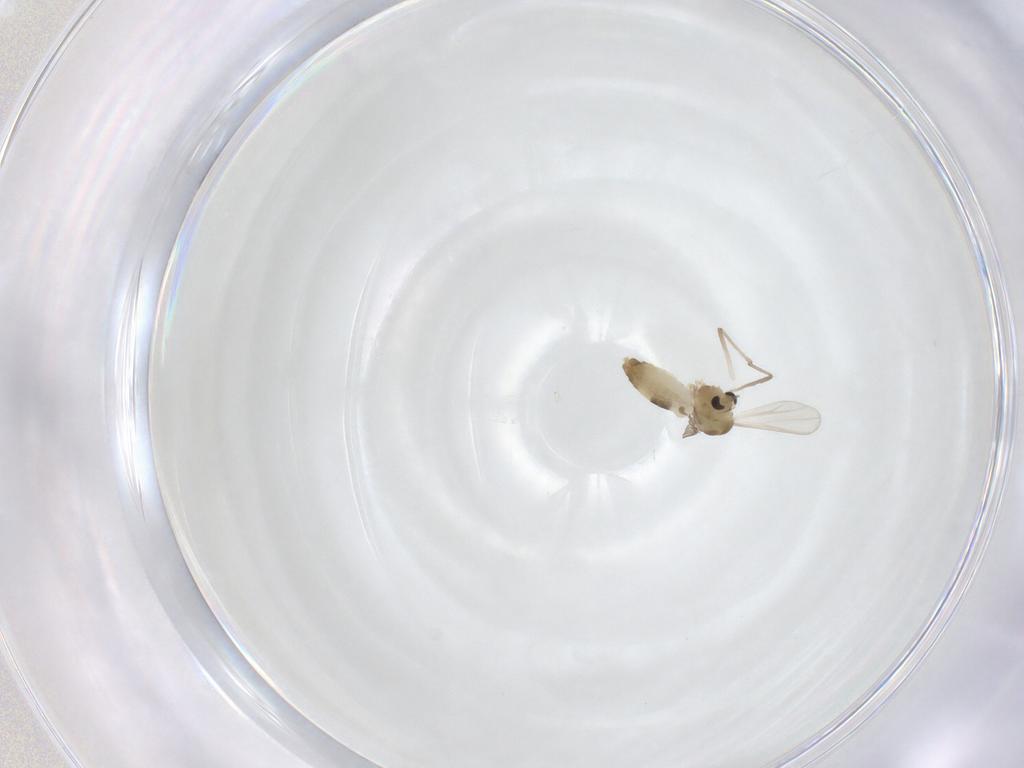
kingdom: Animalia
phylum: Arthropoda
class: Insecta
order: Diptera
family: Chironomidae
